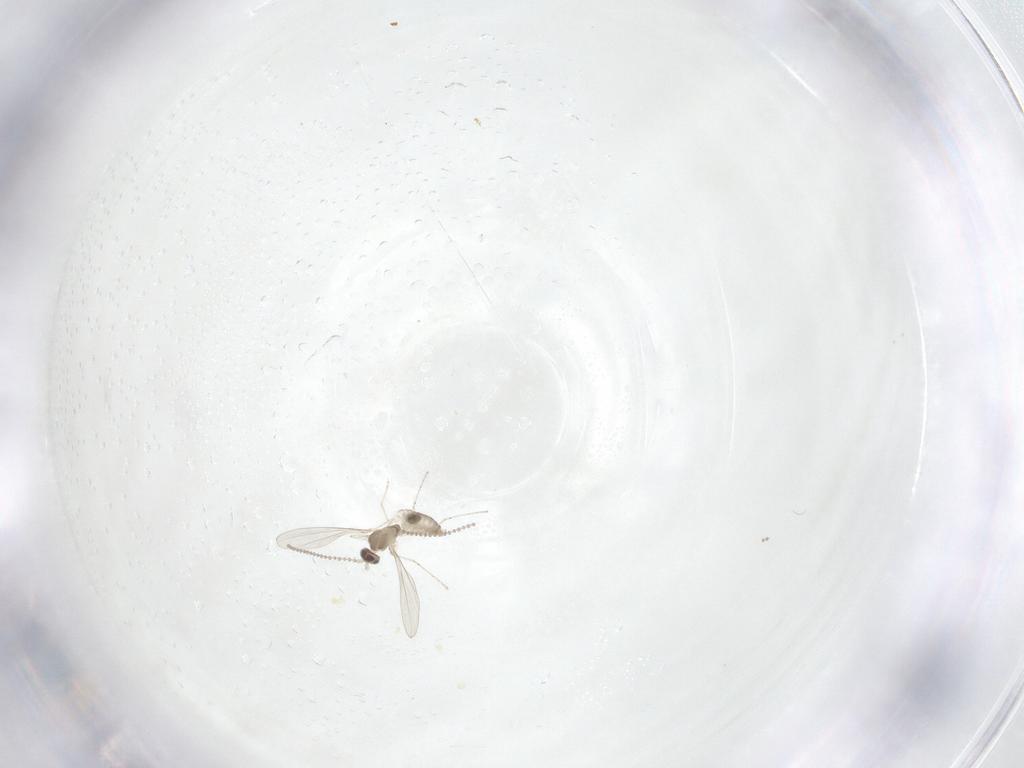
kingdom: Animalia
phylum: Arthropoda
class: Insecta
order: Diptera
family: Cecidomyiidae
